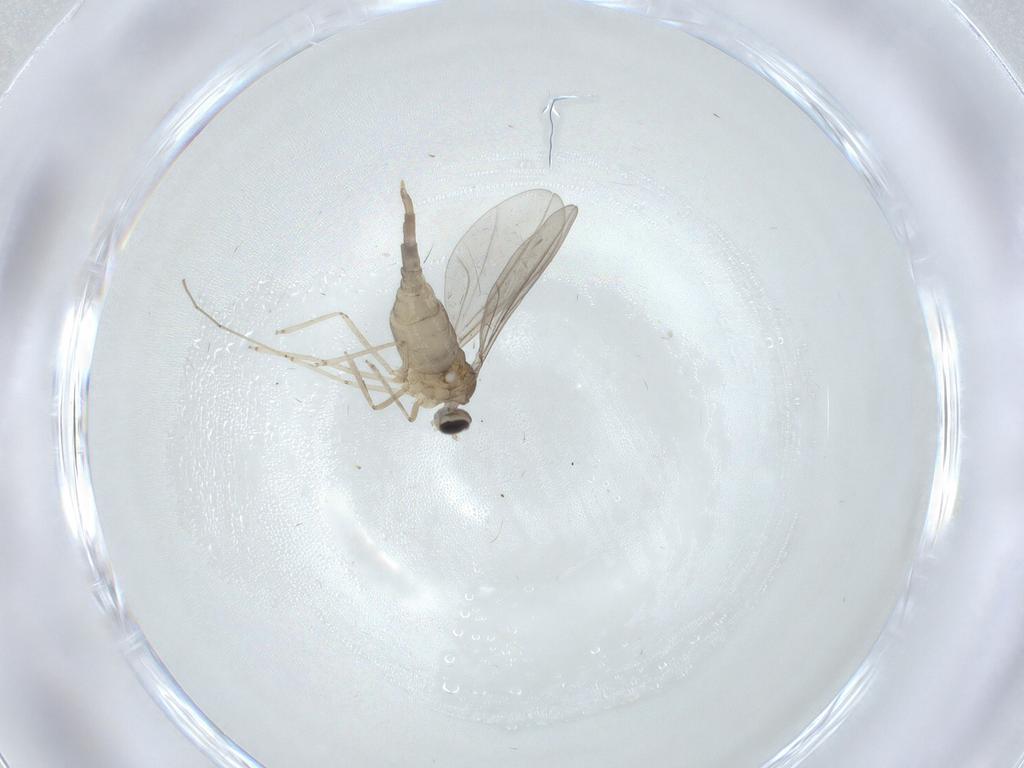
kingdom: Animalia
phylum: Arthropoda
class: Insecta
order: Diptera
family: Cecidomyiidae
